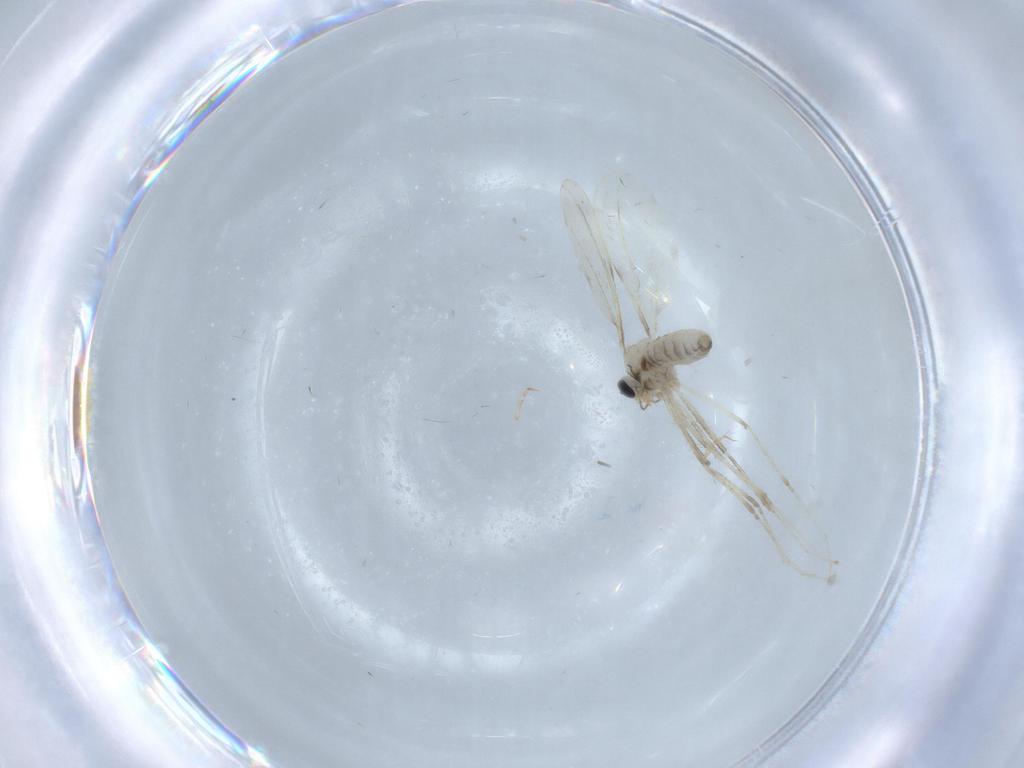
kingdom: Animalia
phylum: Arthropoda
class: Insecta
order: Diptera
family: Cecidomyiidae
